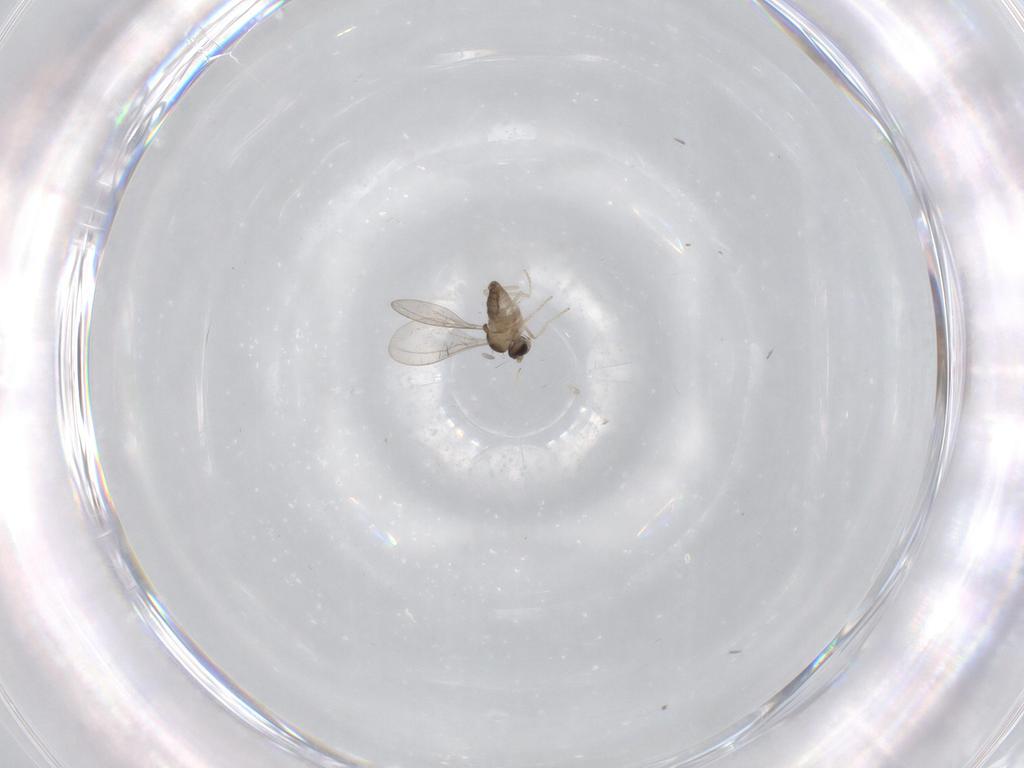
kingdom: Animalia
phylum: Arthropoda
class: Insecta
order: Diptera
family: Cecidomyiidae
